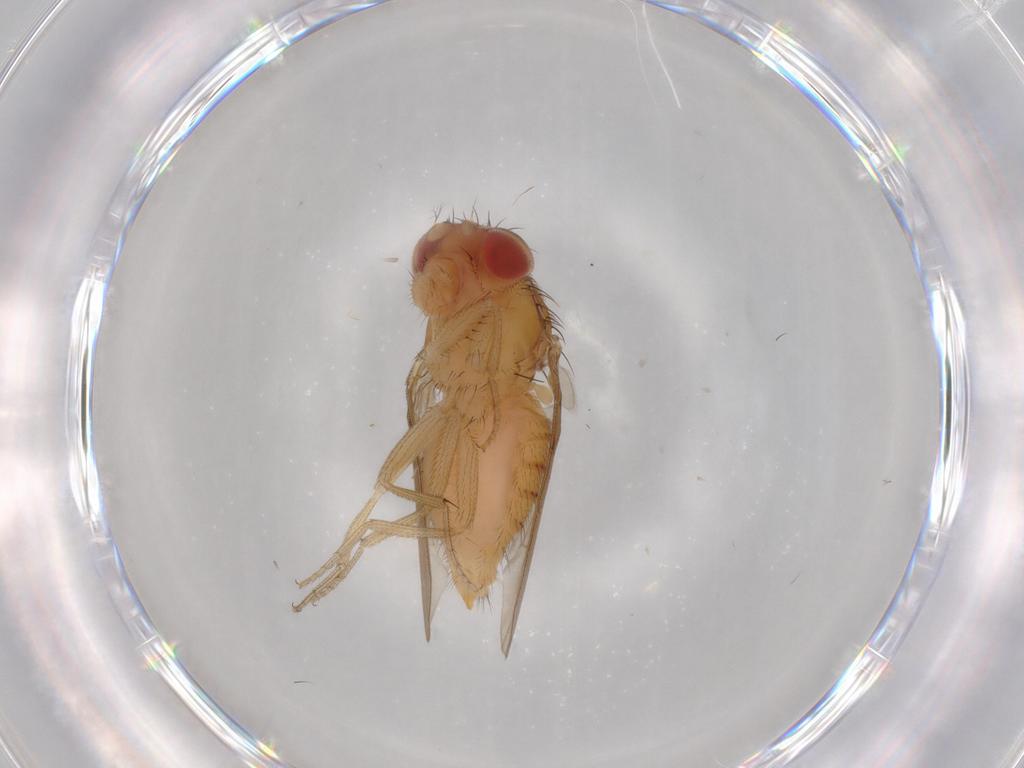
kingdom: Animalia
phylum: Arthropoda
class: Insecta
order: Diptera
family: Drosophilidae
